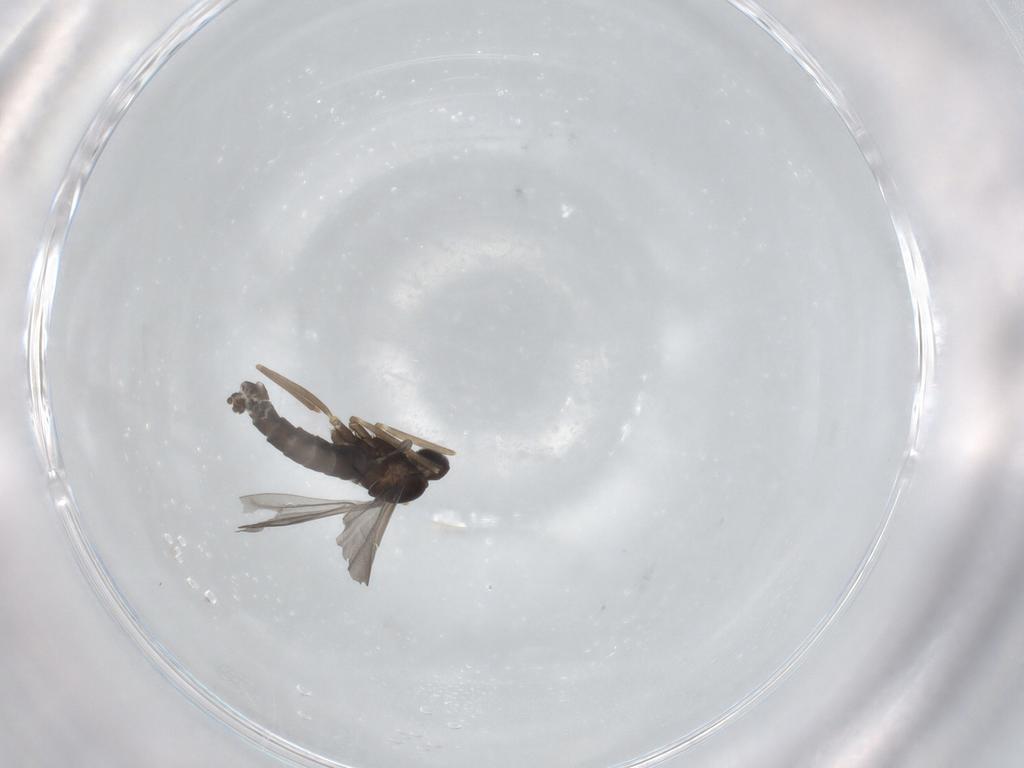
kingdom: Animalia
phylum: Arthropoda
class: Insecta
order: Diptera
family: Cecidomyiidae
